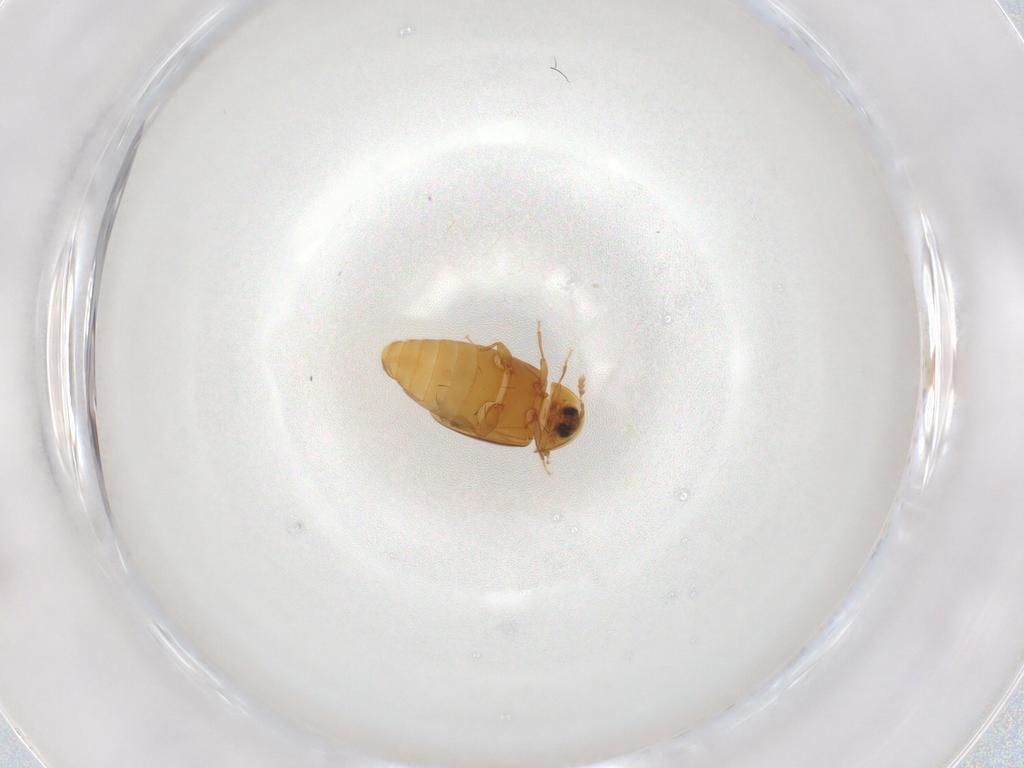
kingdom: Animalia
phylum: Arthropoda
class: Insecta
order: Coleoptera
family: Corylophidae
